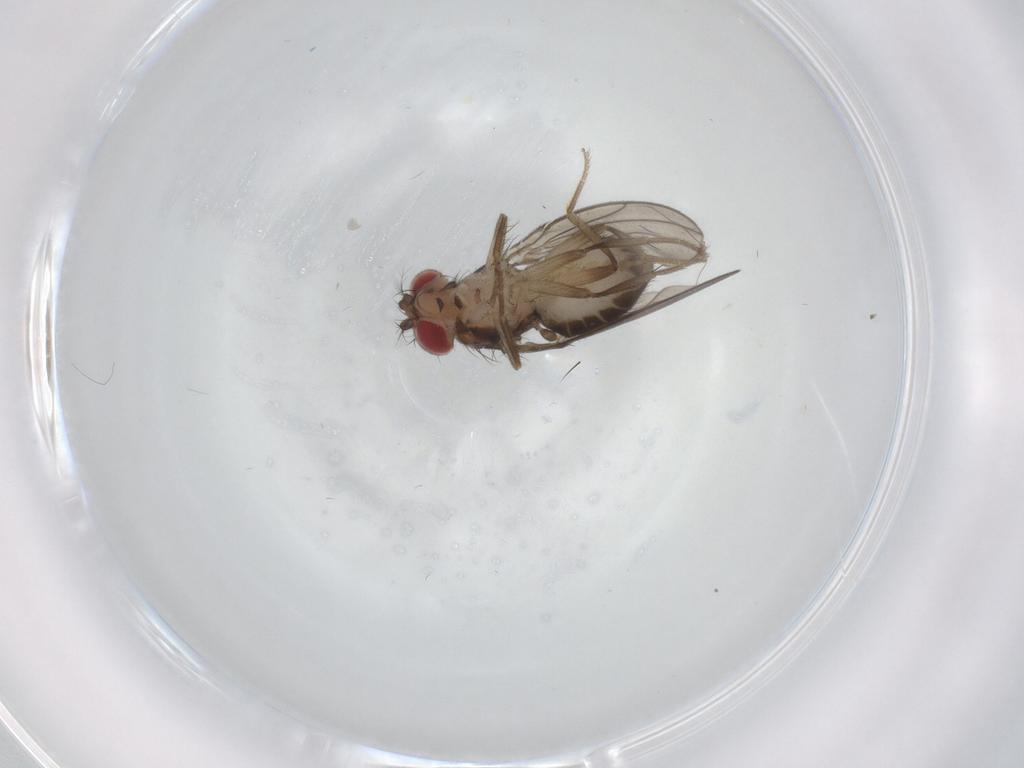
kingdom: Animalia
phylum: Arthropoda
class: Insecta
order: Diptera
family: Drosophilidae
